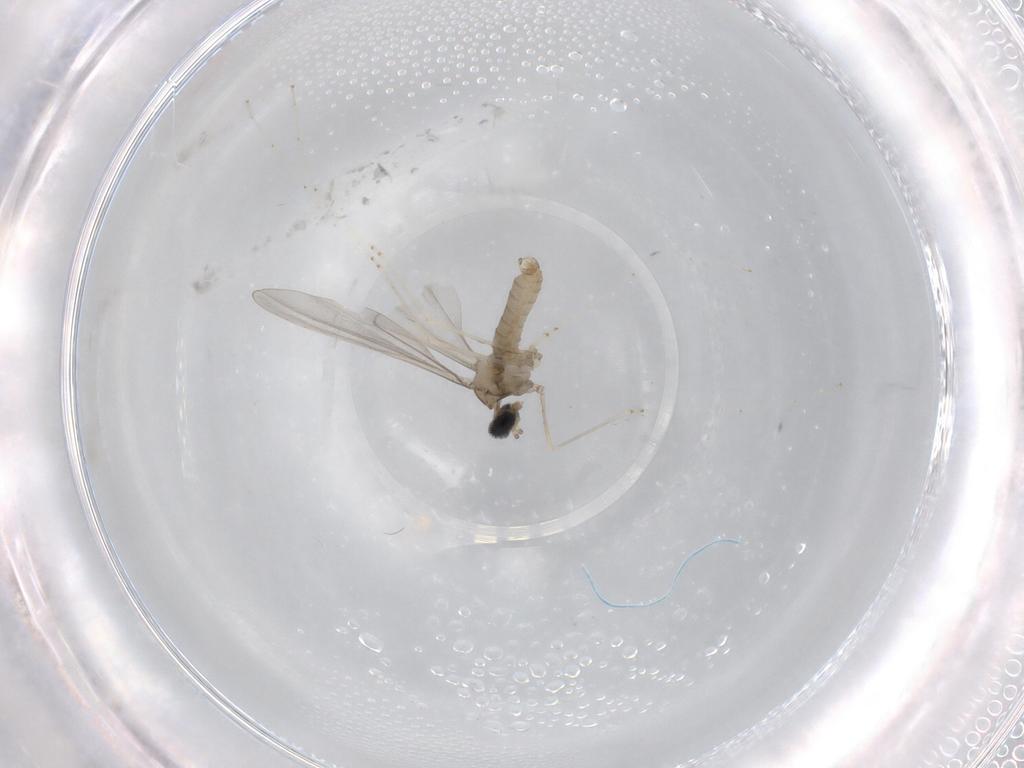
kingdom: Animalia
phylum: Arthropoda
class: Insecta
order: Diptera
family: Cecidomyiidae
